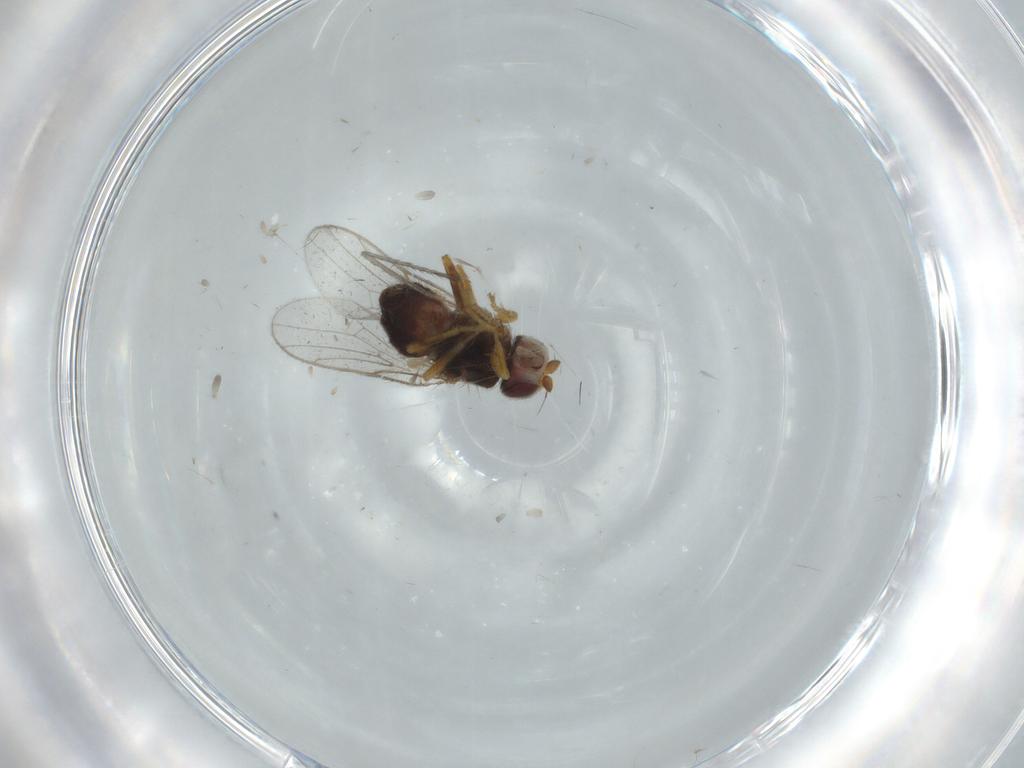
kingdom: Animalia
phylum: Arthropoda
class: Insecta
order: Diptera
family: Chloropidae
